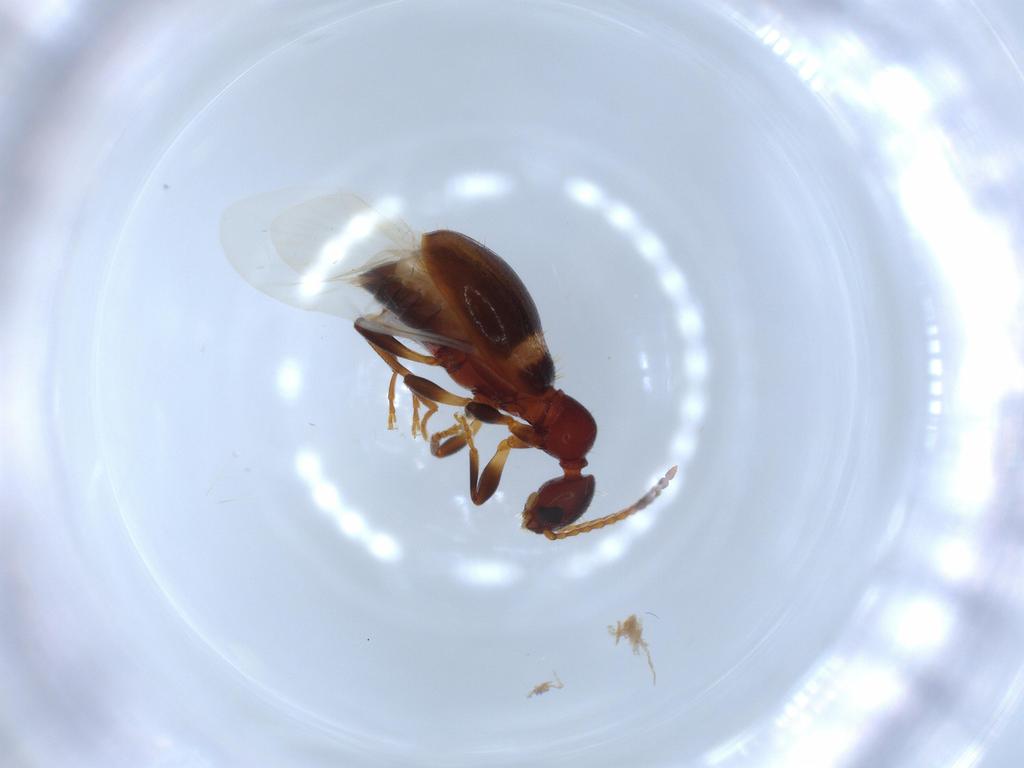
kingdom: Animalia
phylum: Arthropoda
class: Insecta
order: Coleoptera
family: Anthicidae
